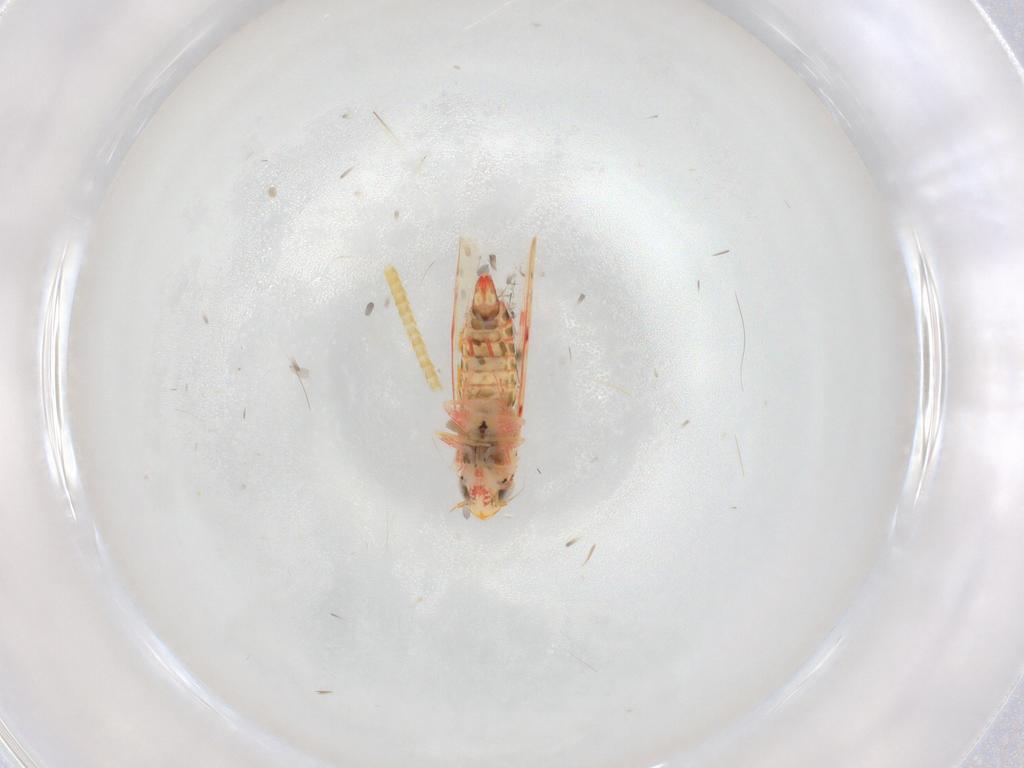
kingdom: Animalia
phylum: Arthropoda
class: Insecta
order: Hemiptera
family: Cicadellidae
